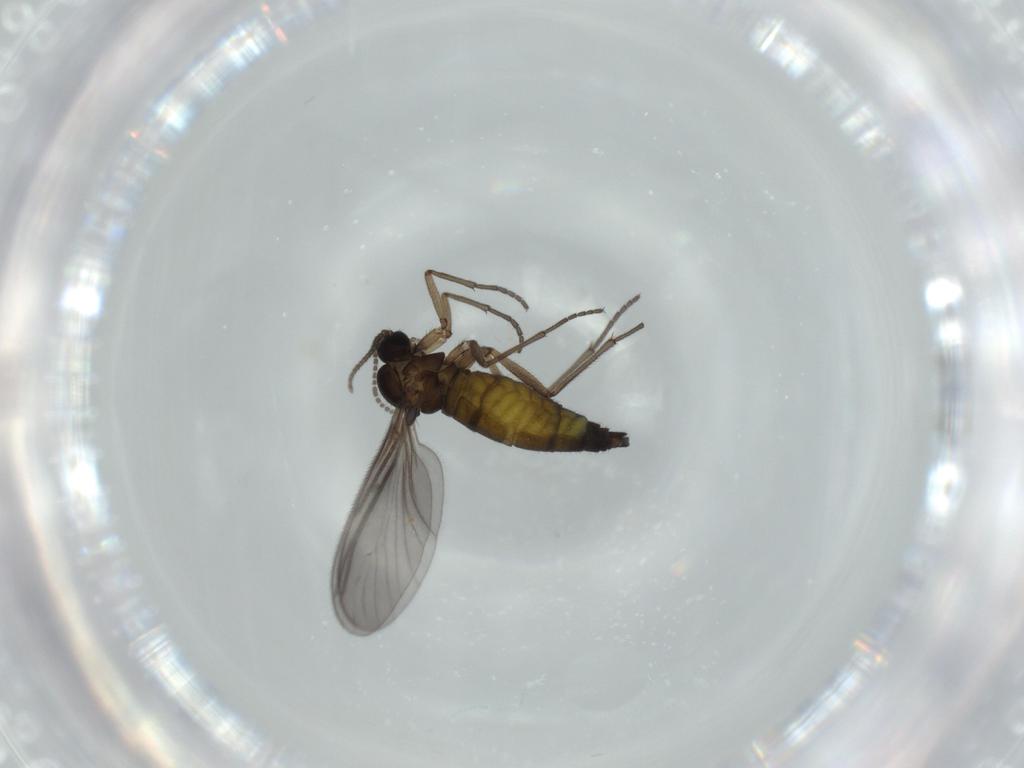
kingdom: Animalia
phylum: Arthropoda
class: Insecta
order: Diptera
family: Sciaridae
